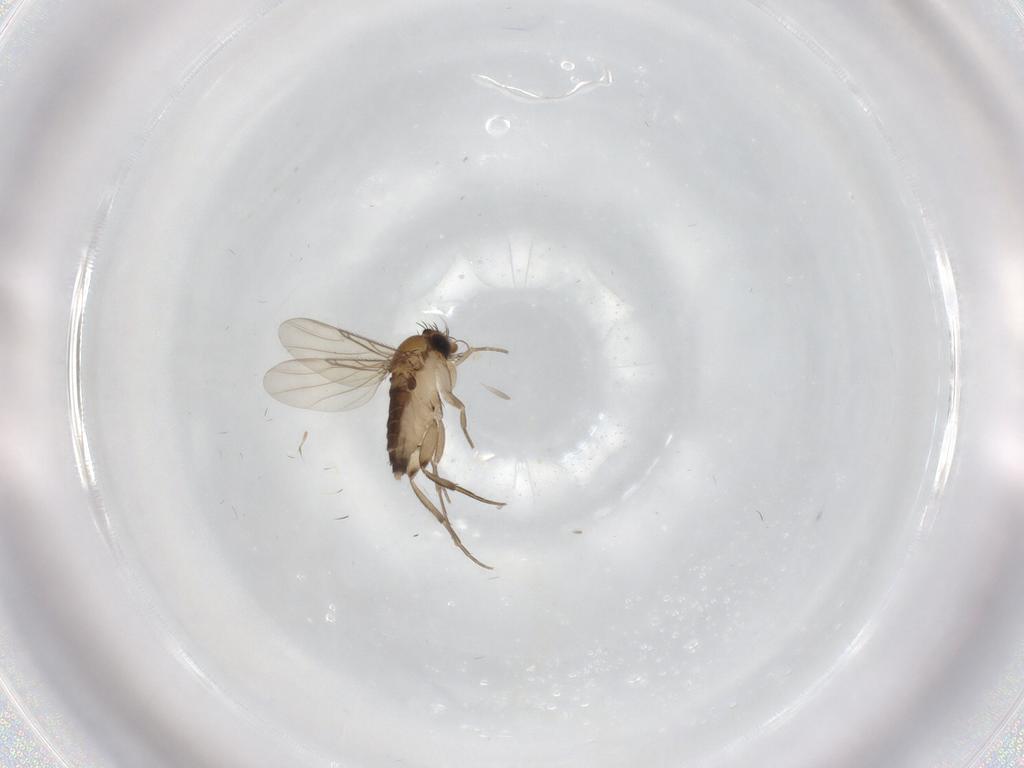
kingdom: Animalia
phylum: Arthropoda
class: Insecta
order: Diptera
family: Phoridae
